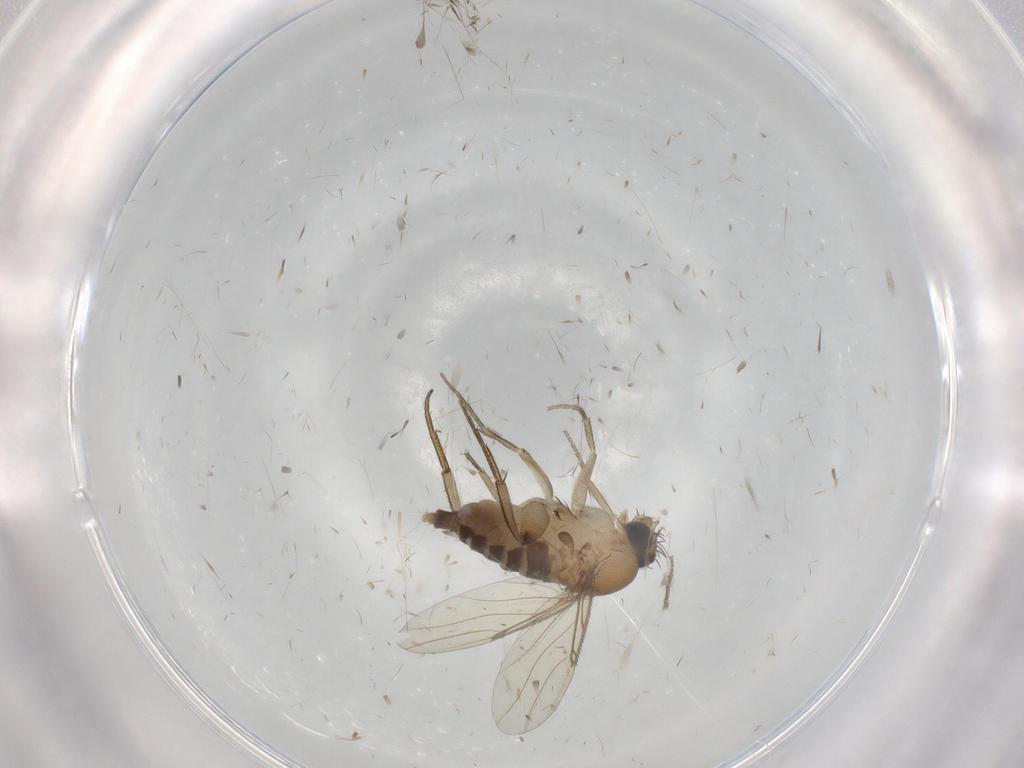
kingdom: Animalia
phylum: Arthropoda
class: Insecta
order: Diptera
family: Phoridae
